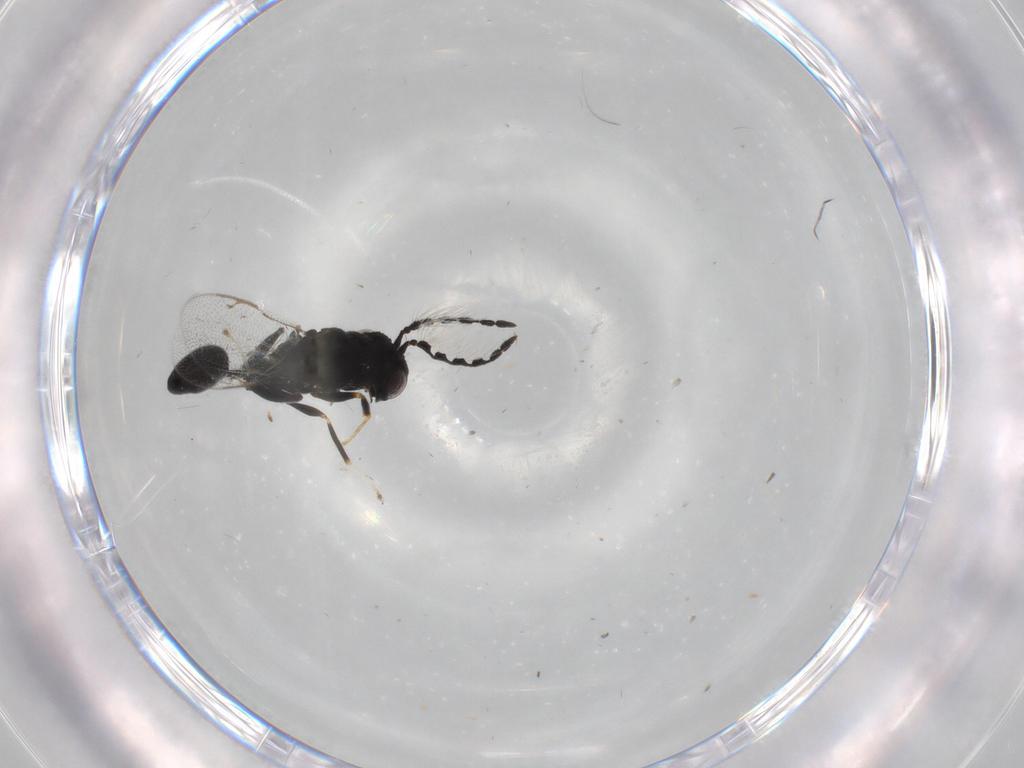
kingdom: Animalia
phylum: Arthropoda
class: Insecta
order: Hymenoptera
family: Eurytomidae
